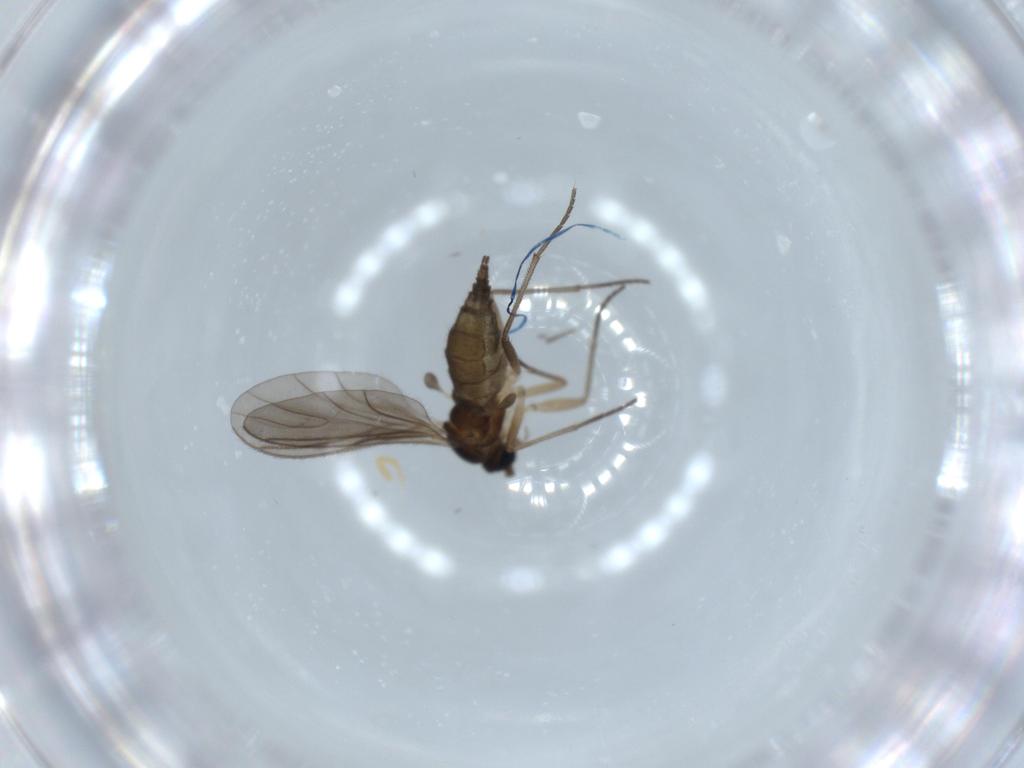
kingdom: Animalia
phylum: Arthropoda
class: Insecta
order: Diptera
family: Sciaridae
